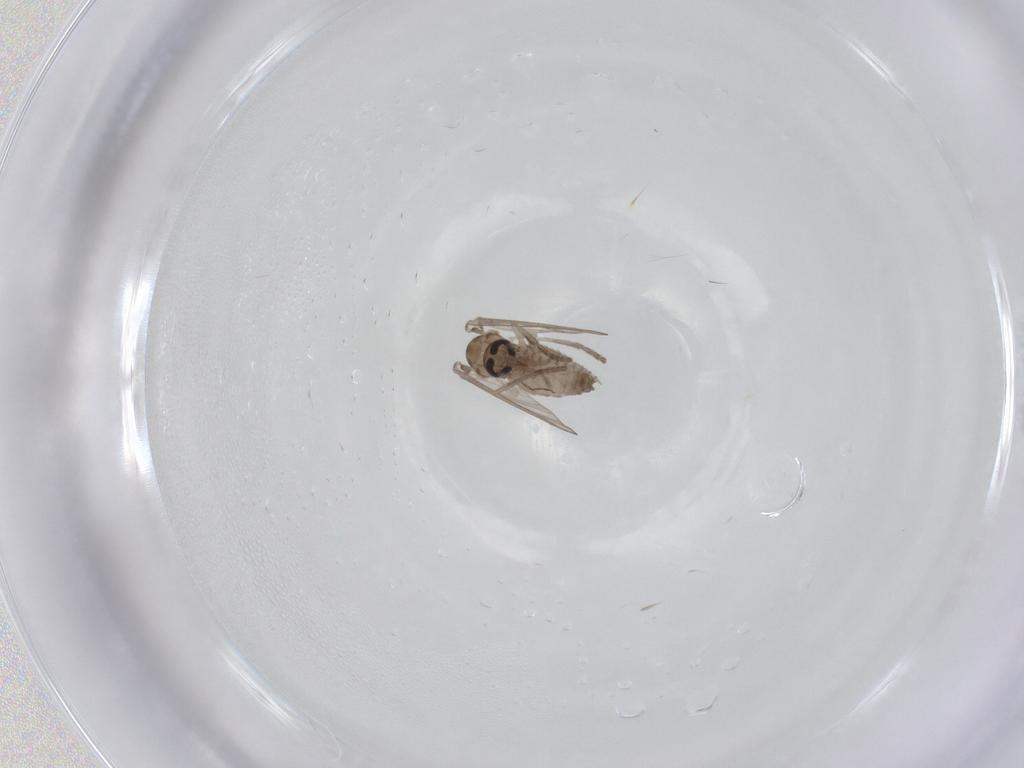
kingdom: Animalia
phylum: Arthropoda
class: Insecta
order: Diptera
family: Psychodidae
